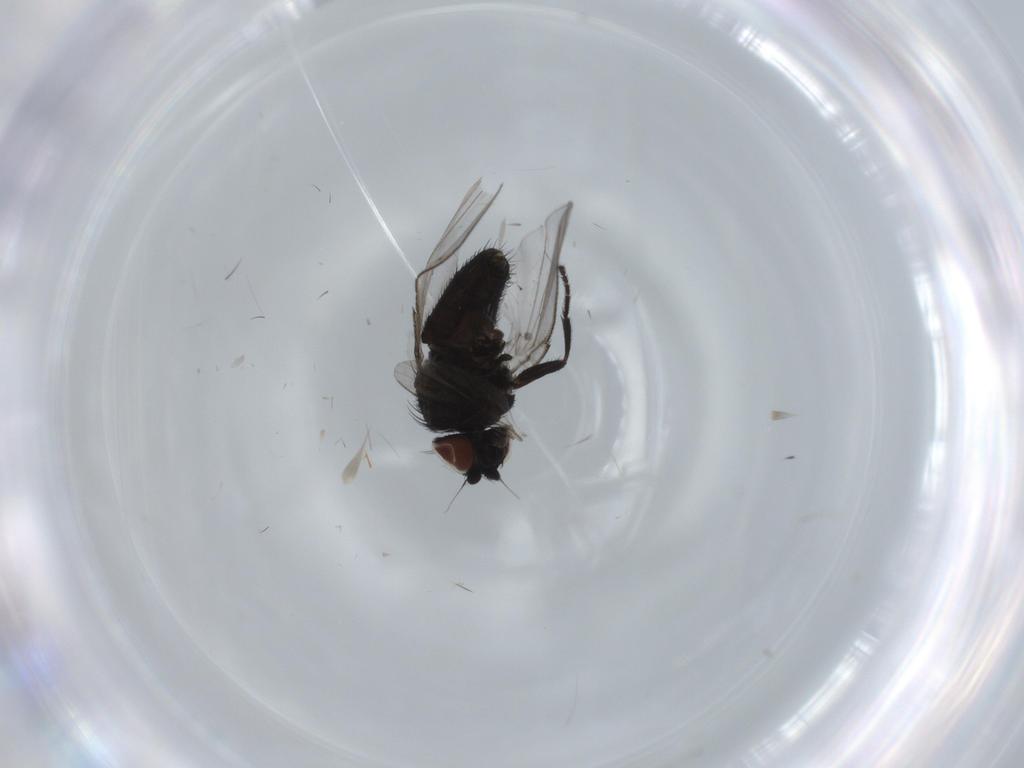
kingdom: Animalia
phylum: Arthropoda
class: Insecta
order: Diptera
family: Milichiidae
